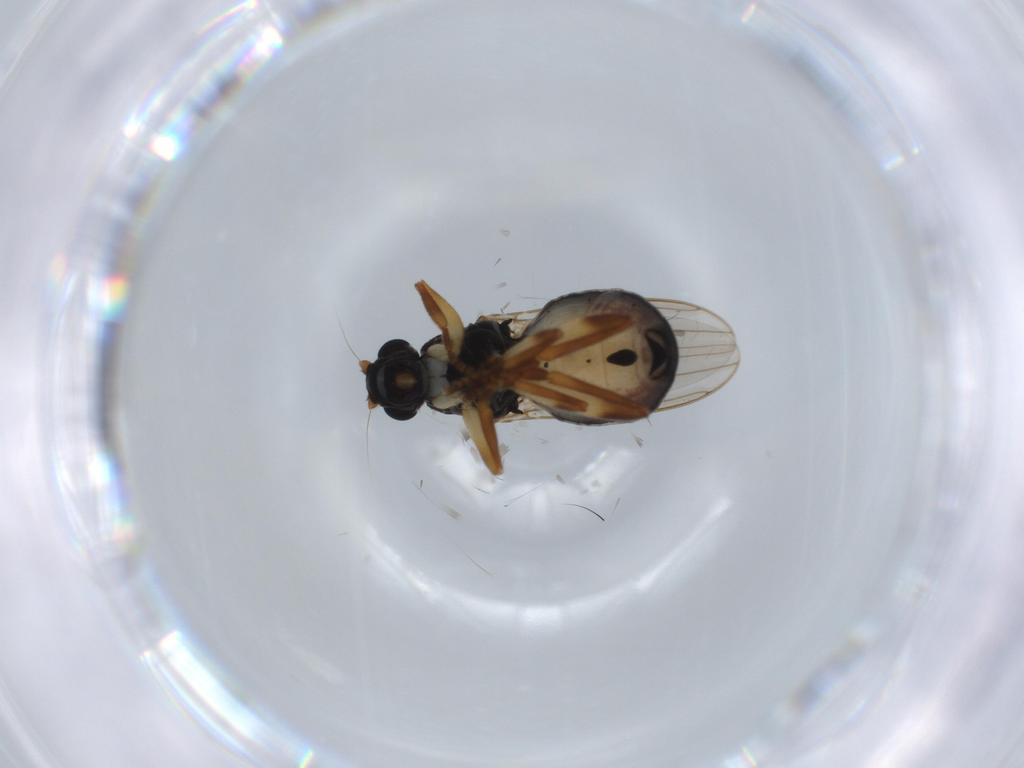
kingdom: Animalia
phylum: Arthropoda
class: Insecta
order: Diptera
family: Sphaeroceridae
